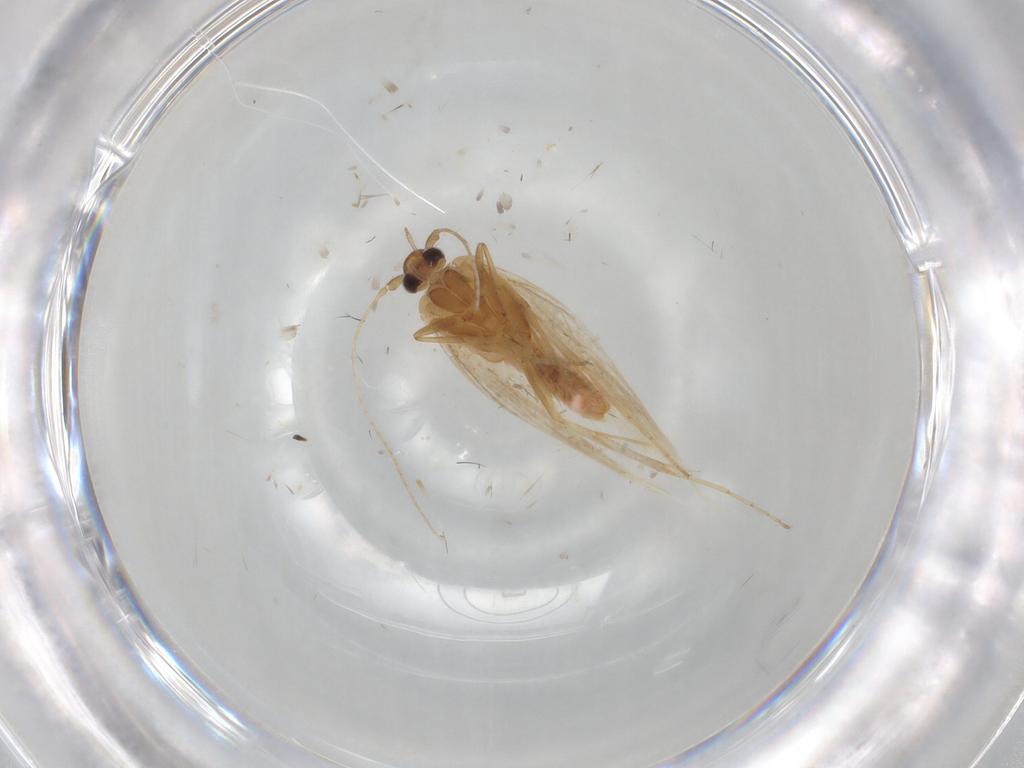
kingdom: Animalia
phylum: Arthropoda
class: Insecta
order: Lepidoptera
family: Gelechiidae
